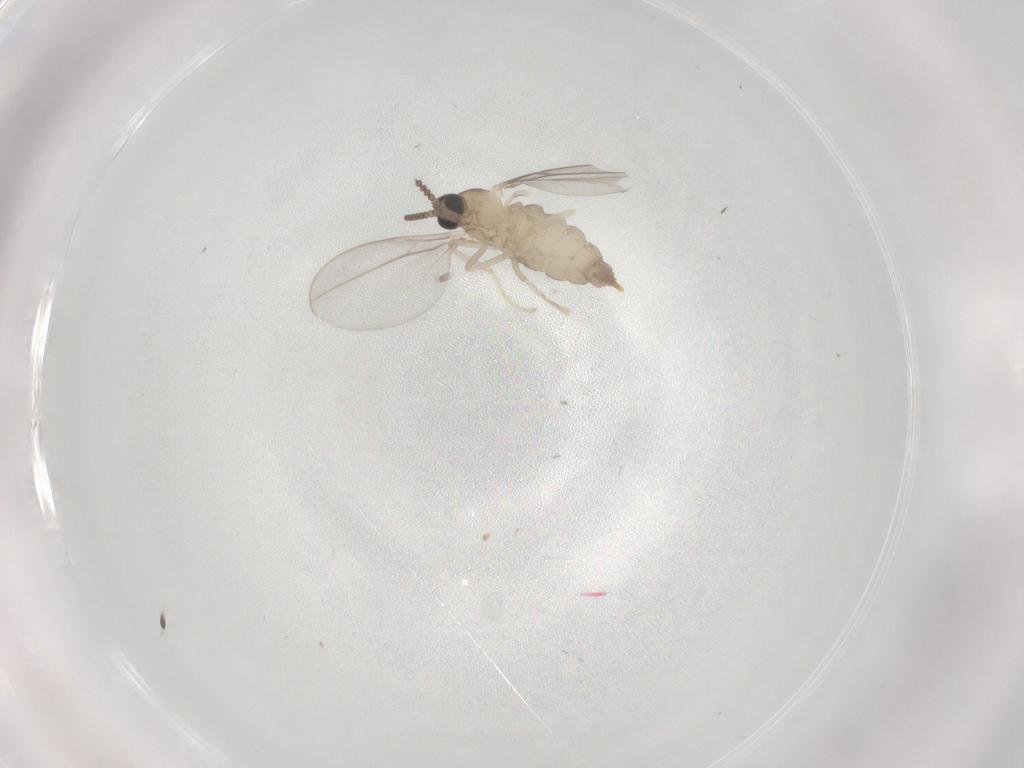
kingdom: Animalia
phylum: Arthropoda
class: Insecta
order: Diptera
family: Cecidomyiidae
